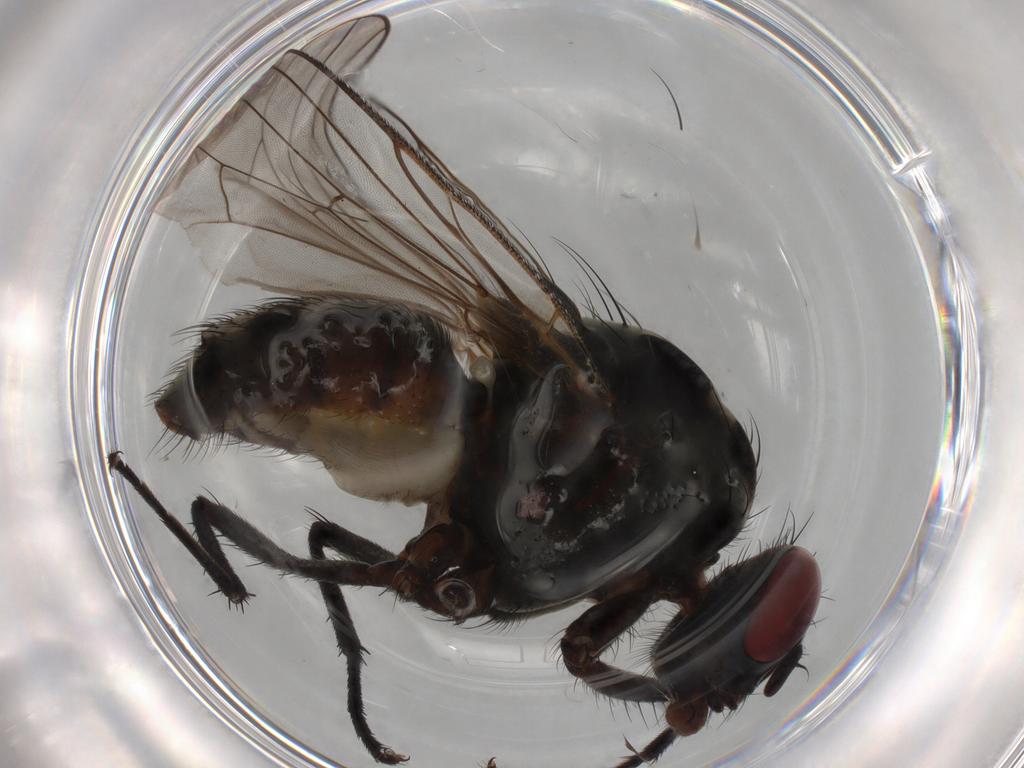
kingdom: Animalia
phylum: Arthropoda
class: Insecta
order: Diptera
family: Anthomyiidae
